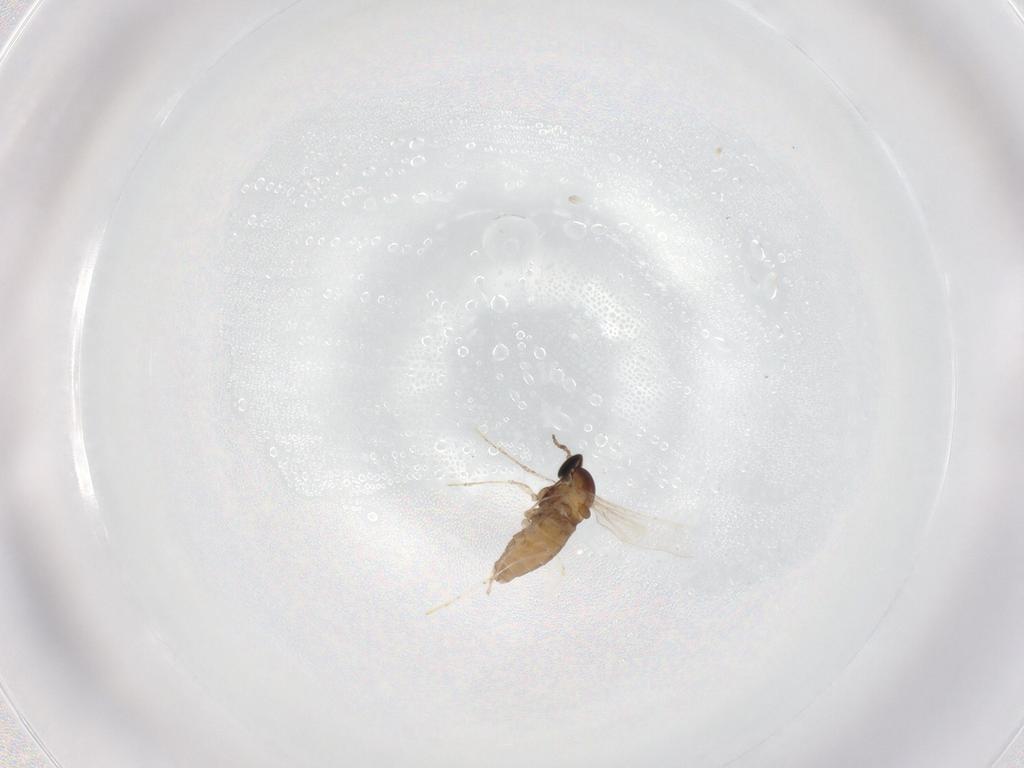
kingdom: Animalia
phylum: Arthropoda
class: Insecta
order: Diptera
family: Cecidomyiidae
